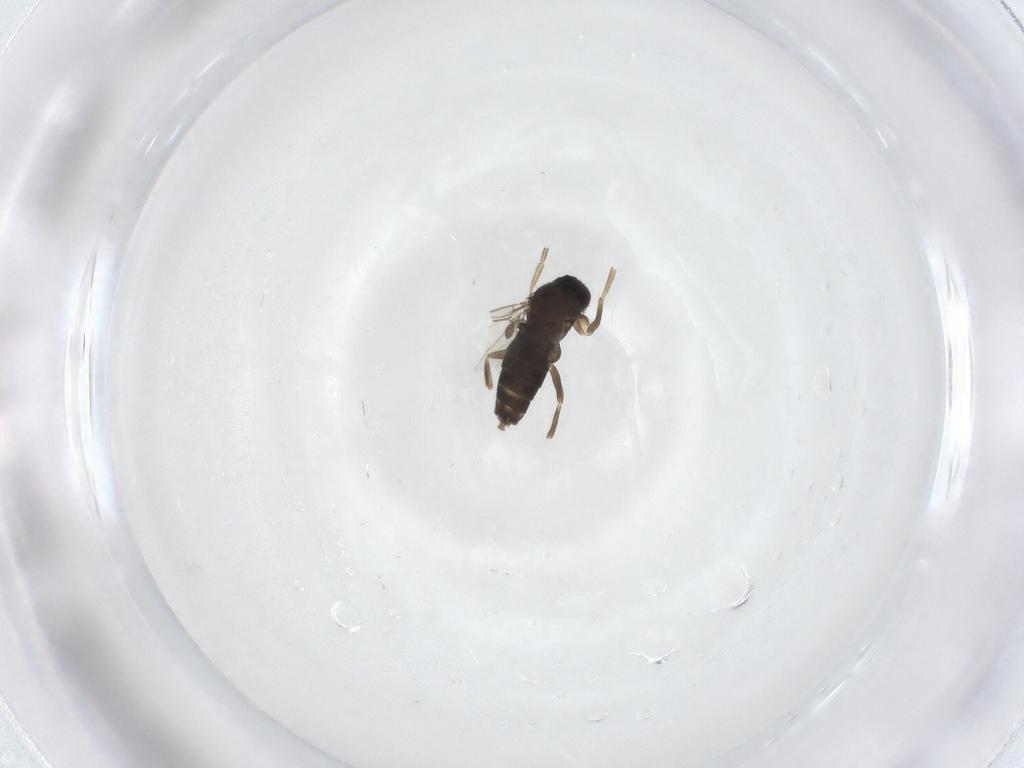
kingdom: Animalia
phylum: Arthropoda
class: Insecta
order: Diptera
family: Phoridae
